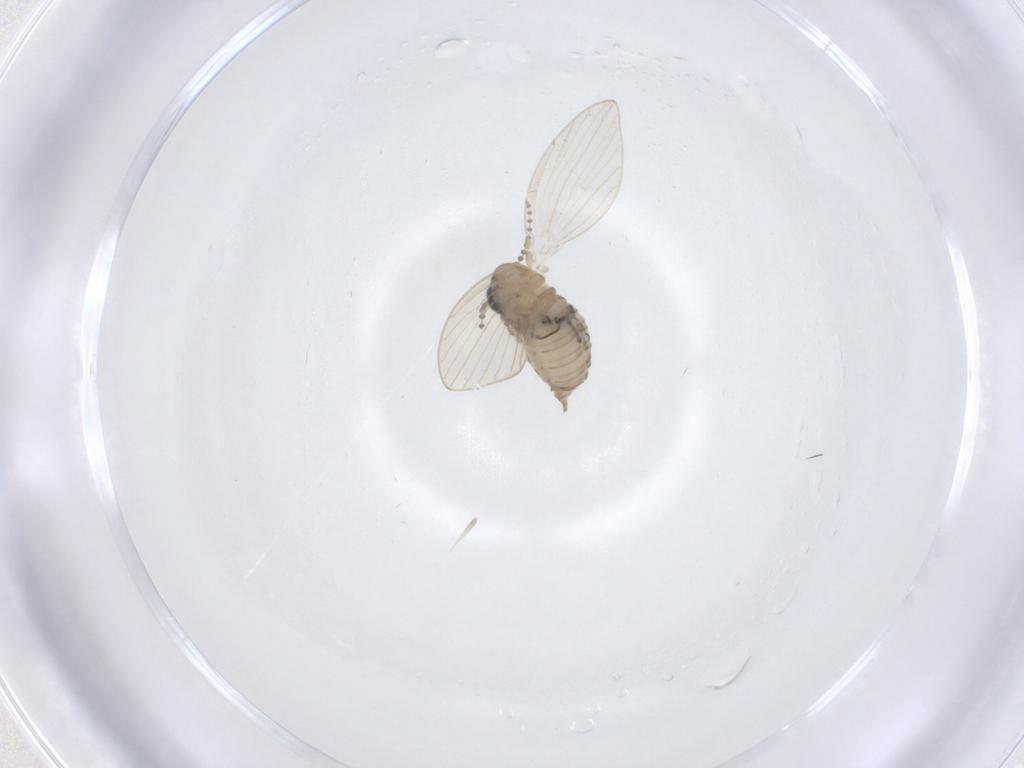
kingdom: Animalia
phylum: Arthropoda
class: Insecta
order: Diptera
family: Psychodidae
